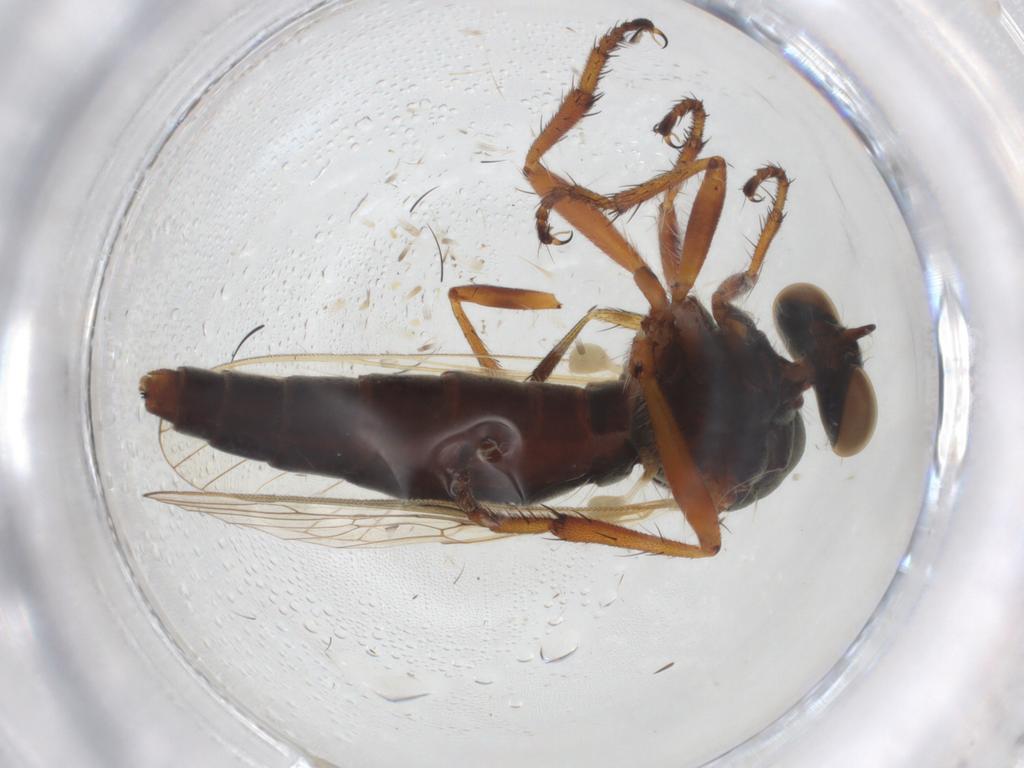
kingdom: Animalia
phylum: Arthropoda
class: Insecta
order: Diptera
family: Asilidae
